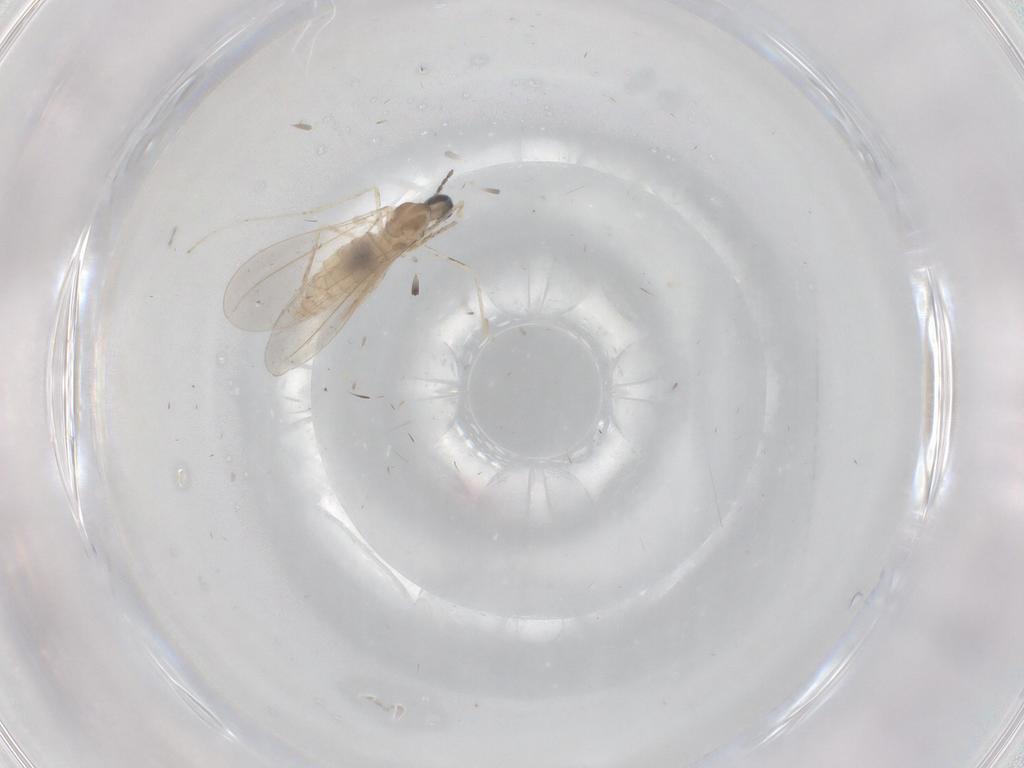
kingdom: Animalia
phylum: Arthropoda
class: Insecta
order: Diptera
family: Cecidomyiidae
